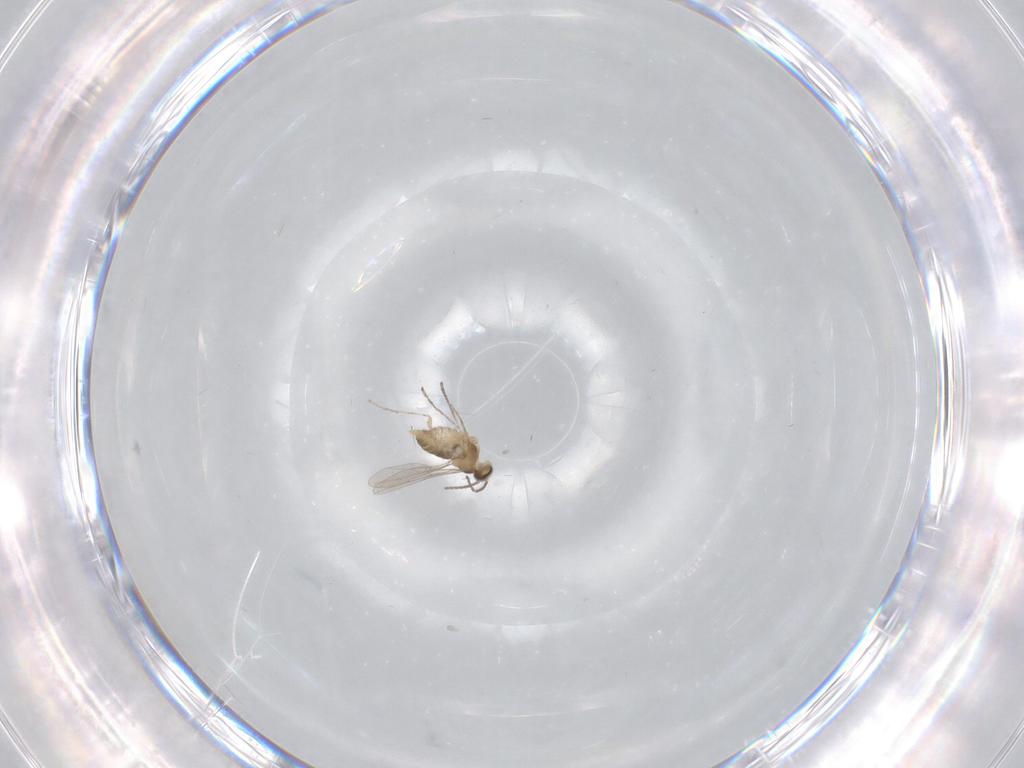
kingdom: Animalia
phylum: Arthropoda
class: Insecta
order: Diptera
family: Cecidomyiidae
